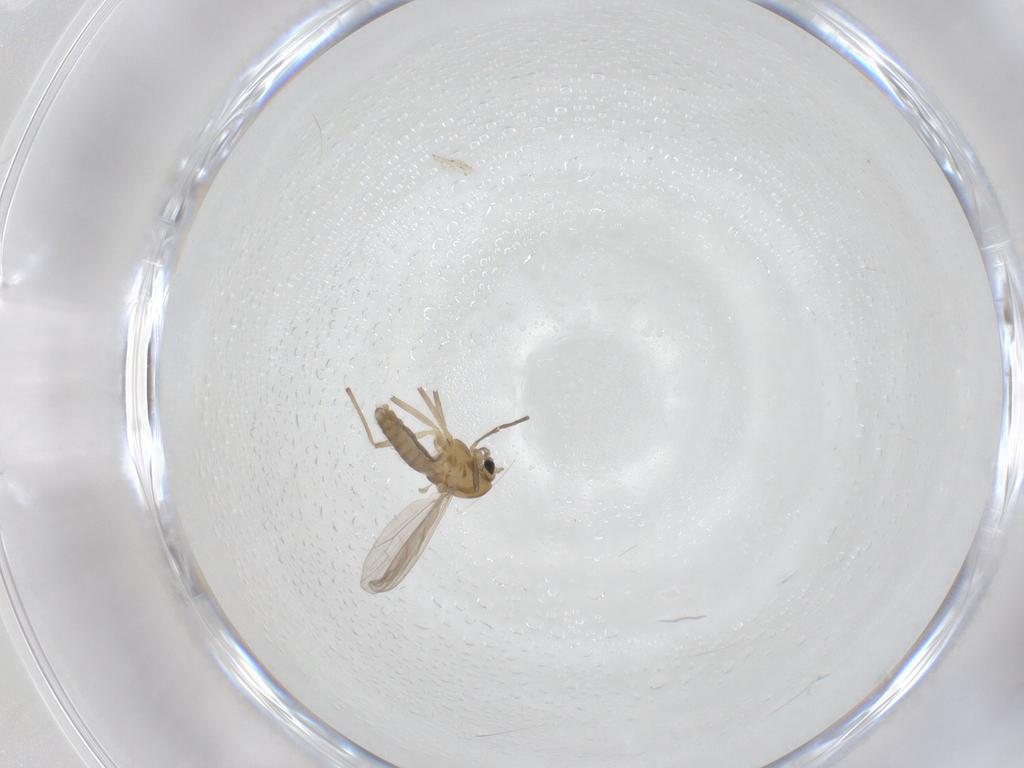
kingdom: Animalia
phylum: Arthropoda
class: Insecta
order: Diptera
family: Chironomidae
